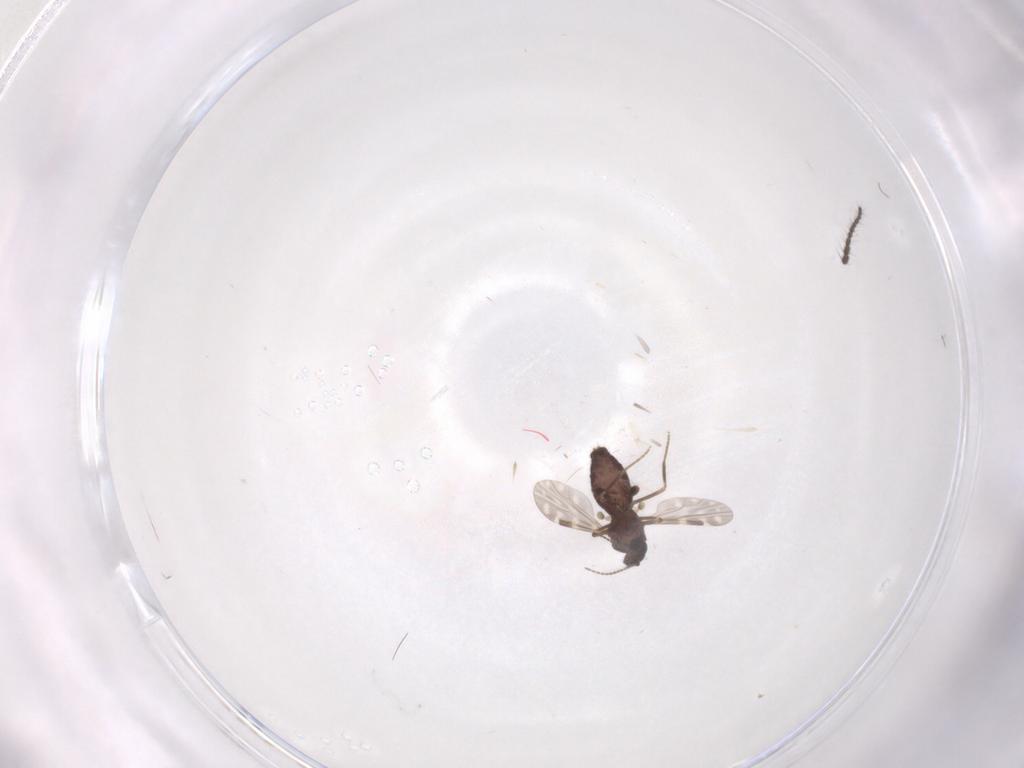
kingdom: Animalia
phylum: Arthropoda
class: Insecta
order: Diptera
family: Limoniidae
